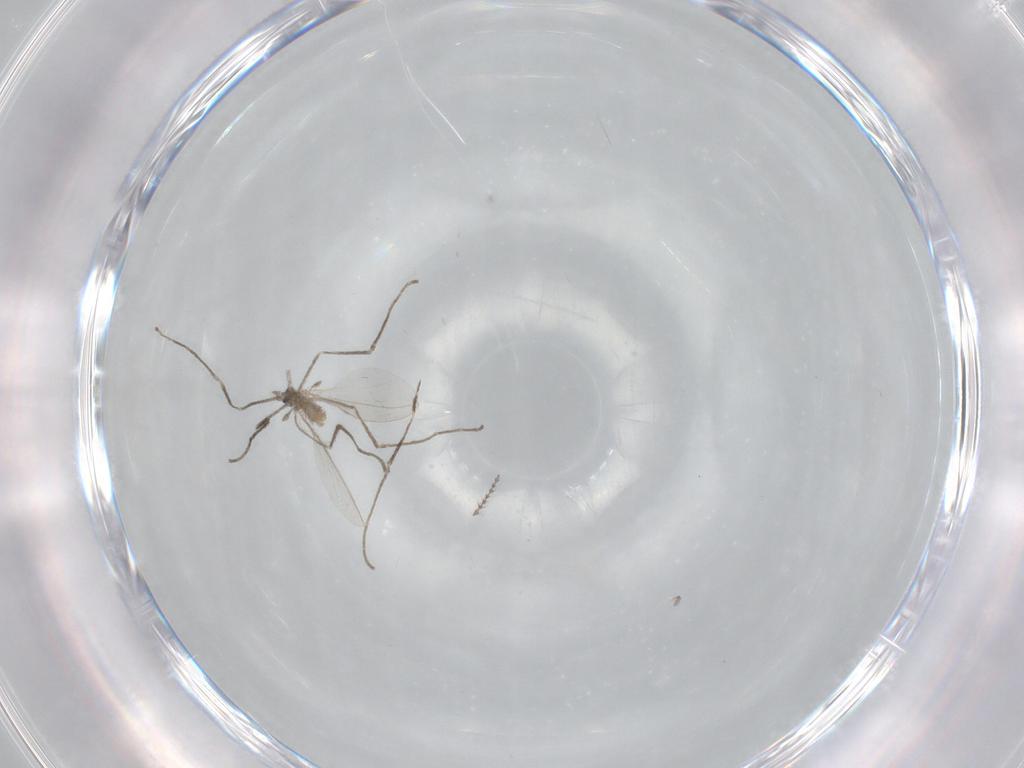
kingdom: Animalia
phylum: Arthropoda
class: Insecta
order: Diptera
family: Cecidomyiidae
